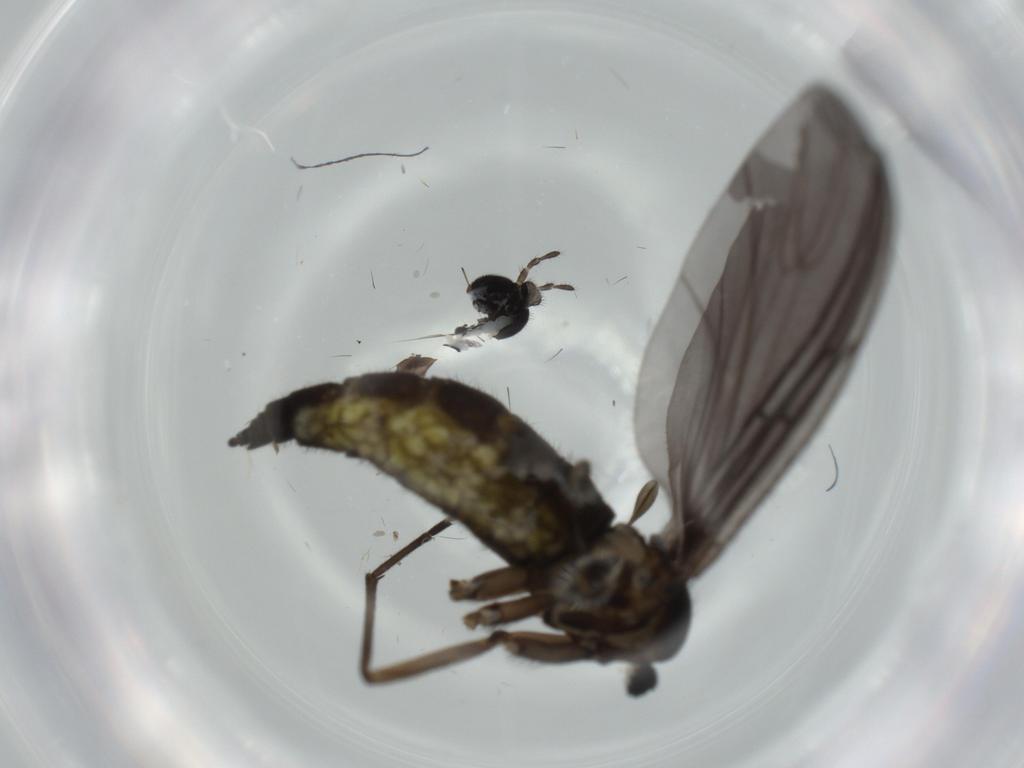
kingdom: Animalia
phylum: Arthropoda
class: Insecta
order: Diptera
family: Sciaridae
